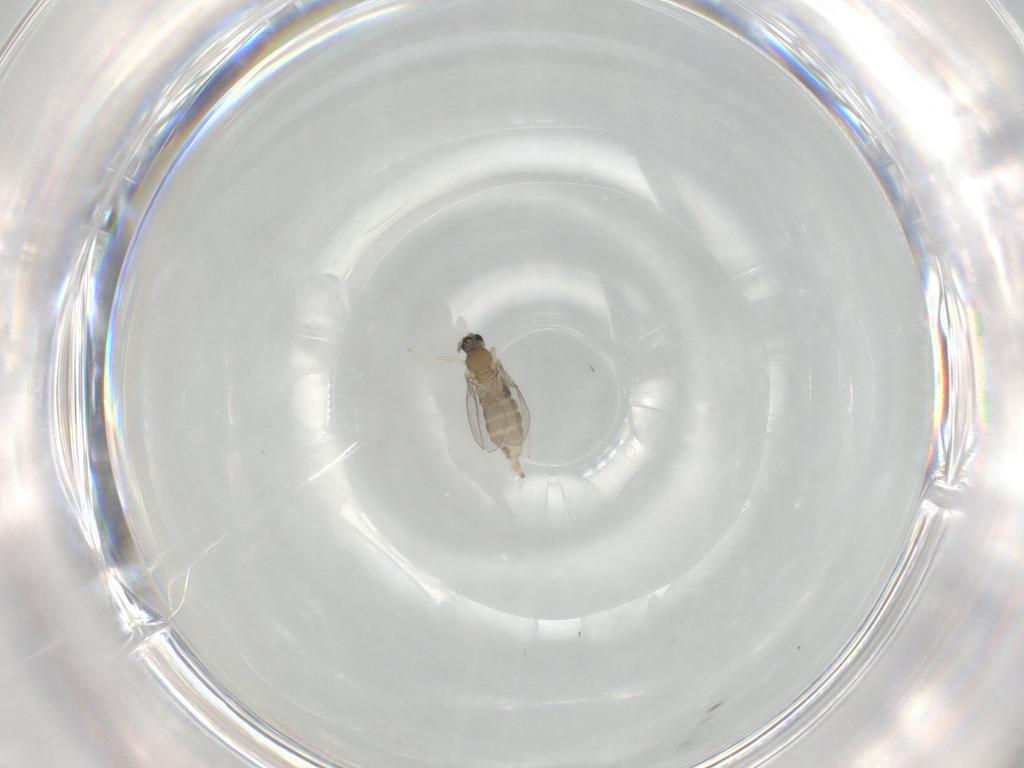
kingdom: Animalia
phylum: Arthropoda
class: Insecta
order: Diptera
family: Cecidomyiidae
